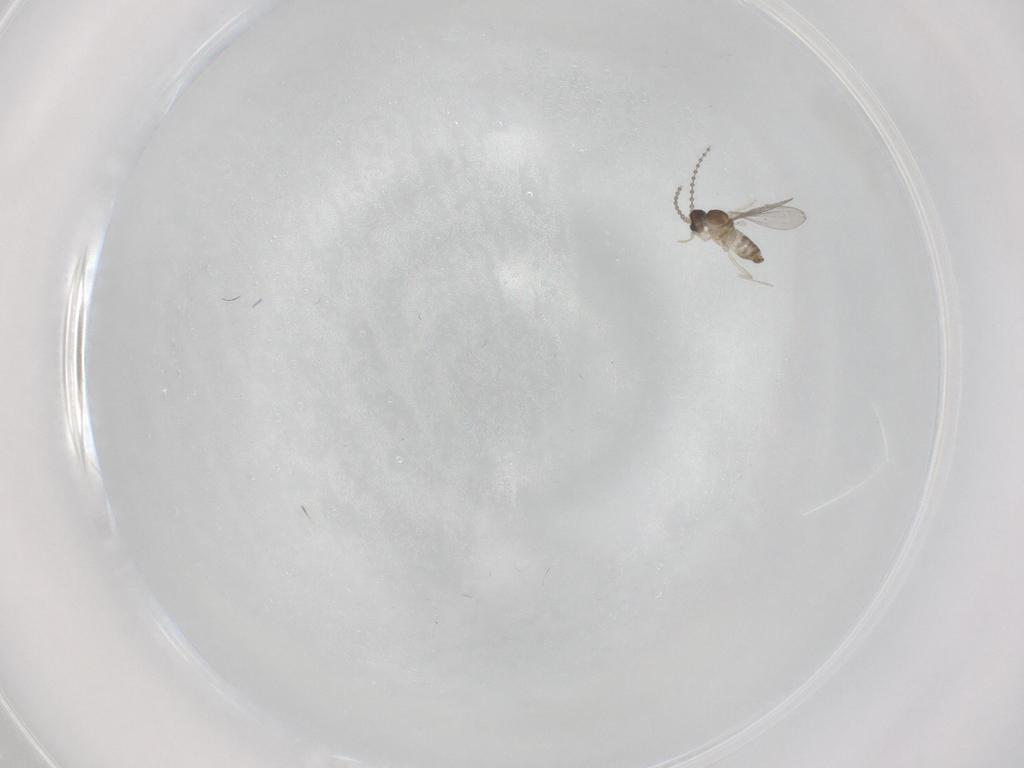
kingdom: Animalia
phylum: Arthropoda
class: Insecta
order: Diptera
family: Cecidomyiidae
